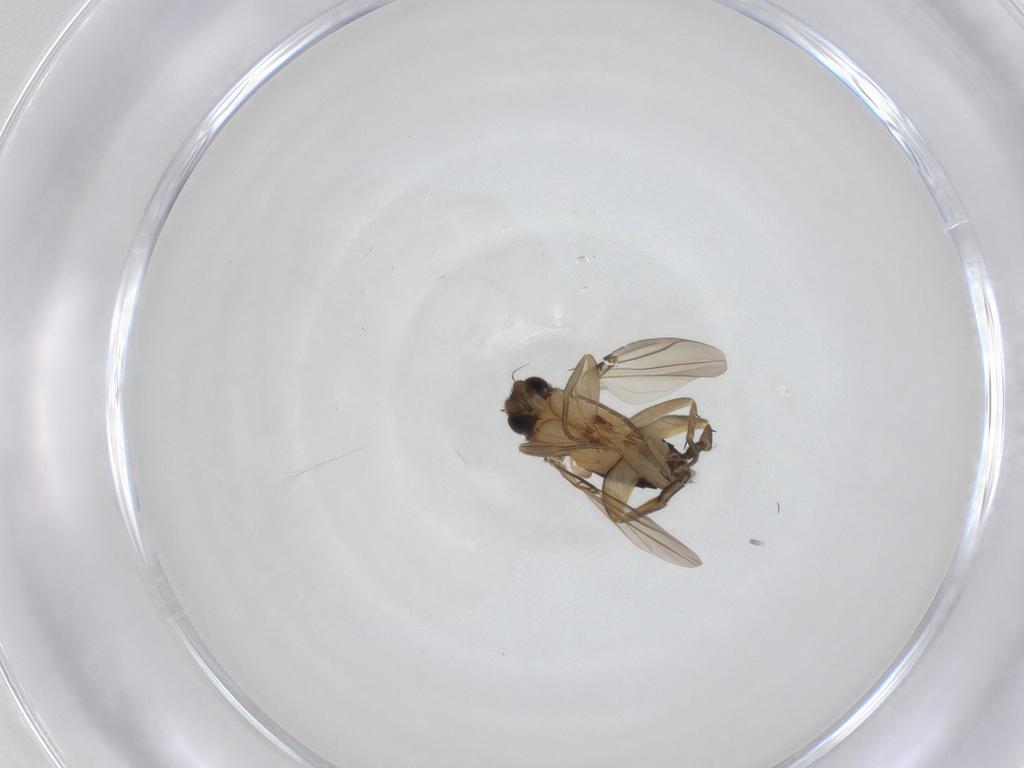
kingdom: Animalia
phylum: Arthropoda
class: Insecta
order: Diptera
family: Phoridae
